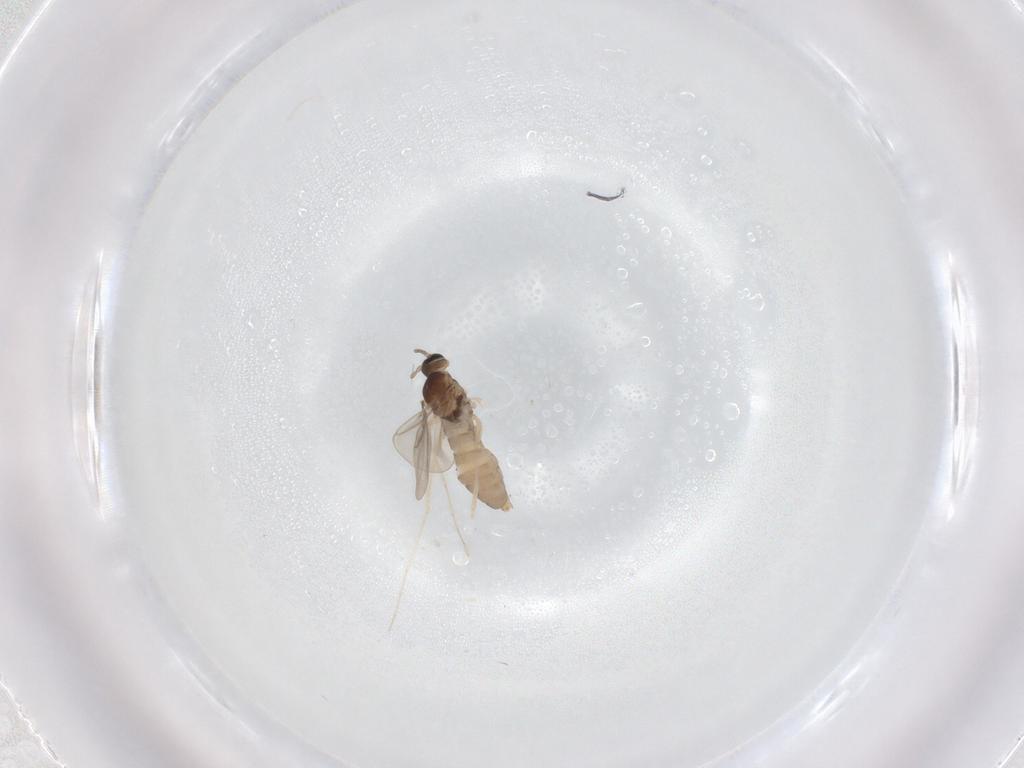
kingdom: Animalia
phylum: Arthropoda
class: Insecta
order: Diptera
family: Cecidomyiidae
